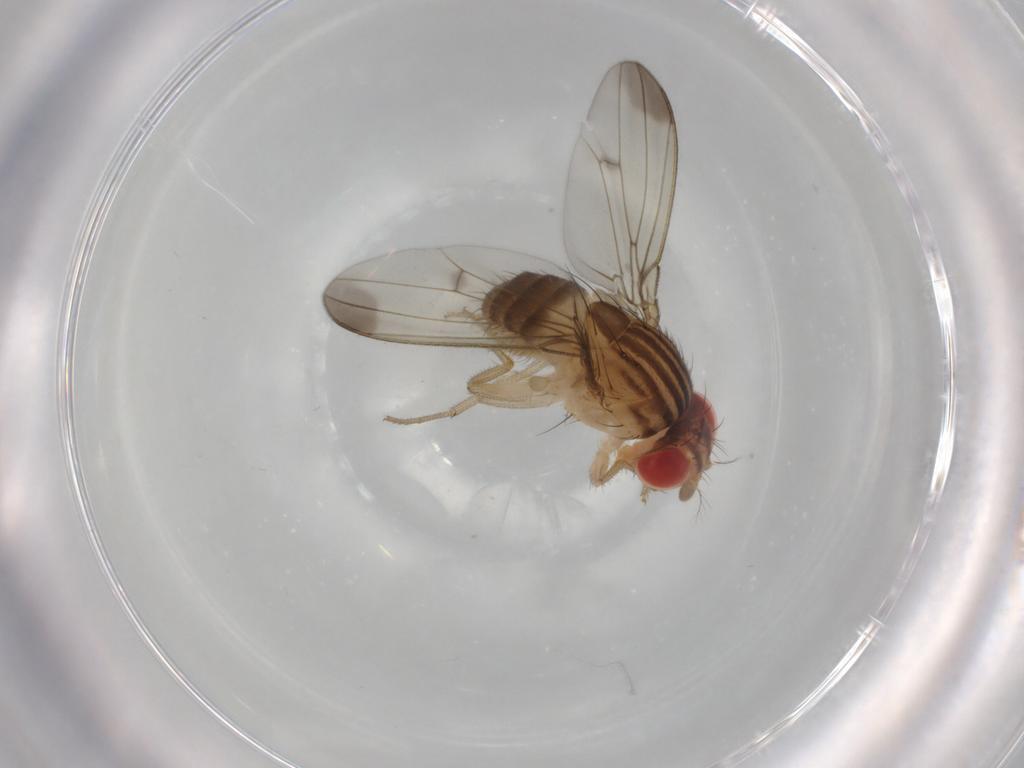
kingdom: Animalia
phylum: Arthropoda
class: Insecta
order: Diptera
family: Drosophilidae
